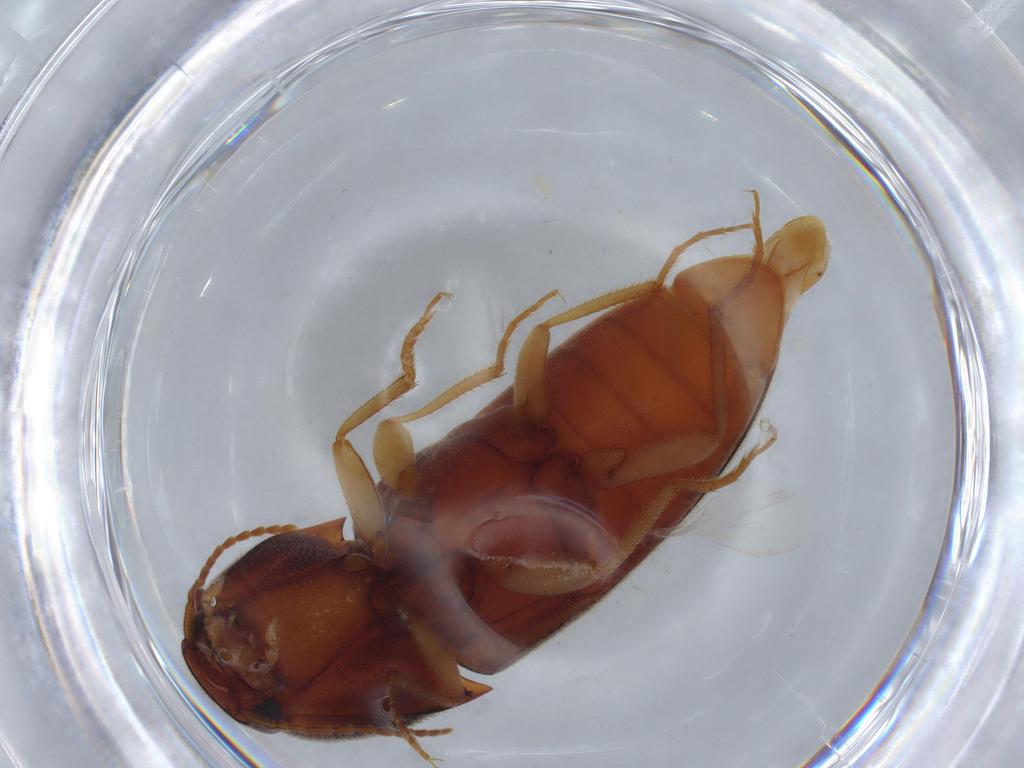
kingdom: Animalia
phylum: Arthropoda
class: Insecta
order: Coleoptera
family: Elateridae
